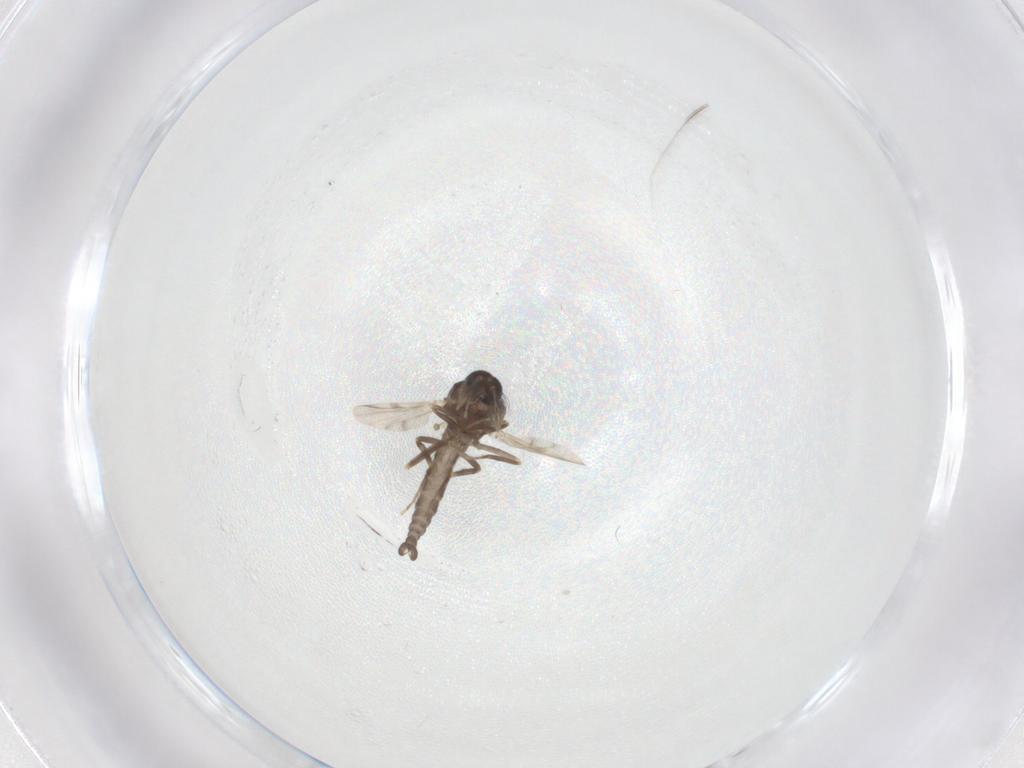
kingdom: Animalia
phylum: Arthropoda
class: Insecta
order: Diptera
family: Ceratopogonidae
